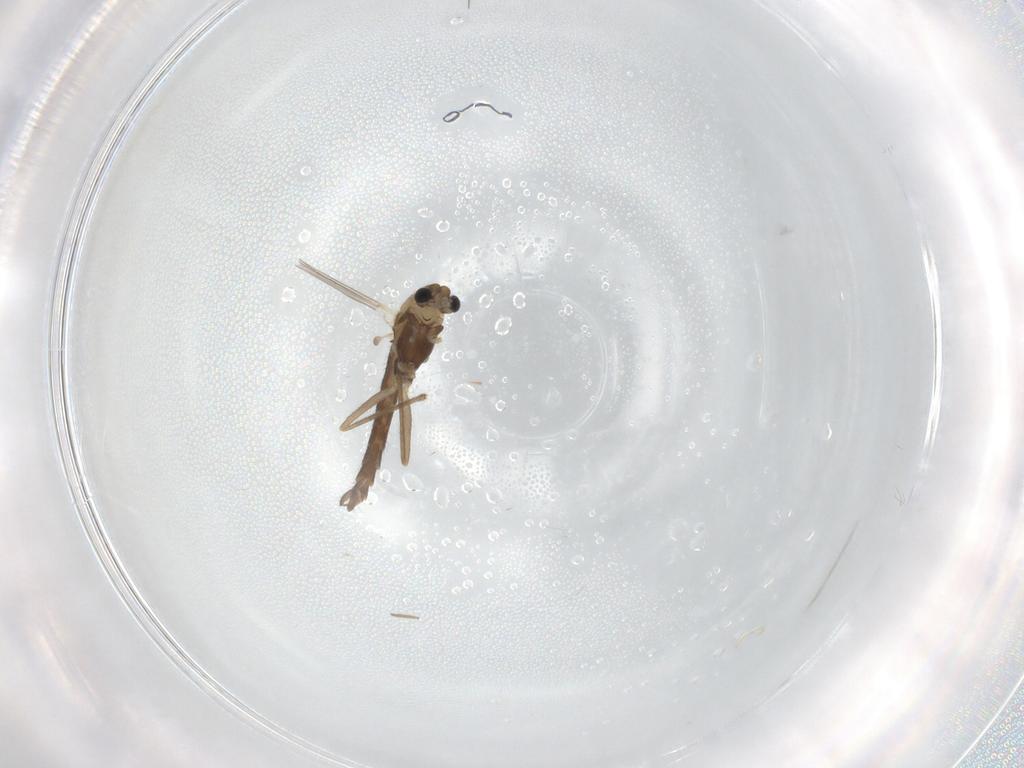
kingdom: Animalia
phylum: Arthropoda
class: Insecta
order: Diptera
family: Chironomidae
